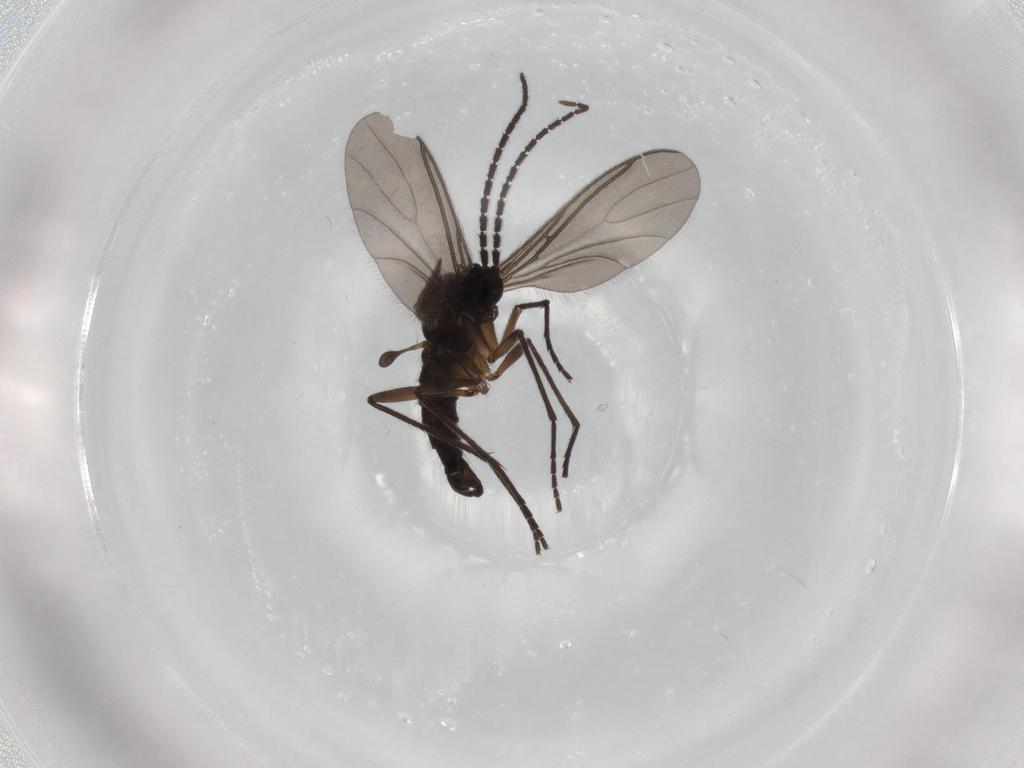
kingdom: Animalia
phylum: Arthropoda
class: Insecta
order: Diptera
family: Sciaridae
